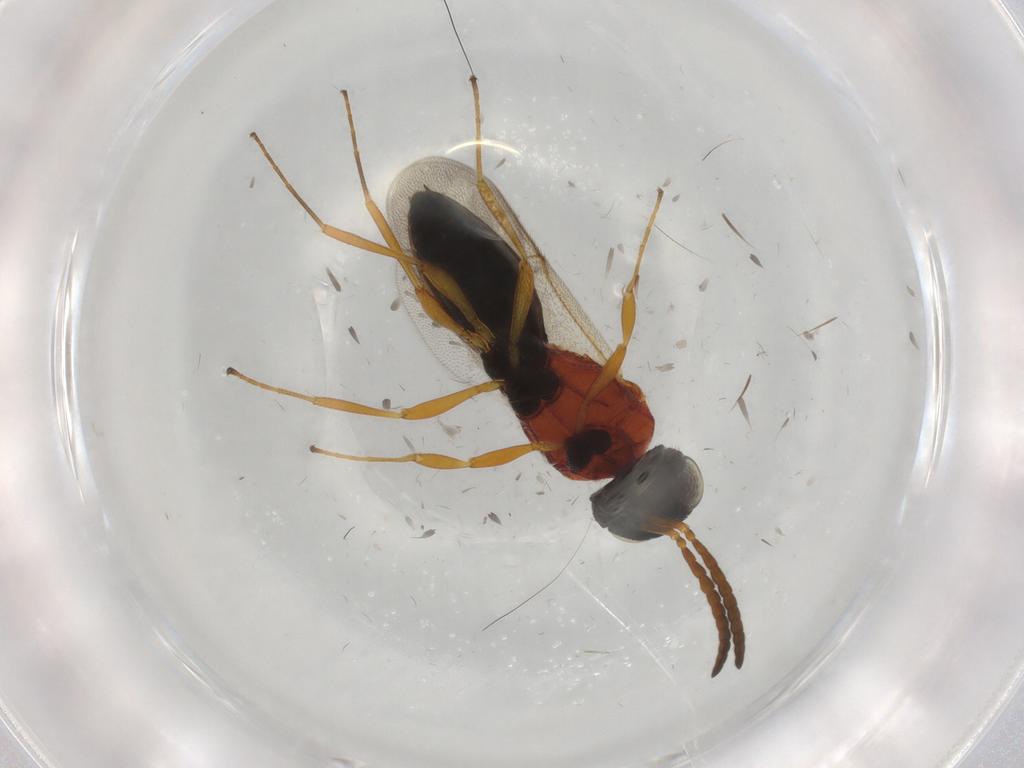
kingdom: Animalia
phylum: Arthropoda
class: Insecta
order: Hymenoptera
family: Scelionidae
